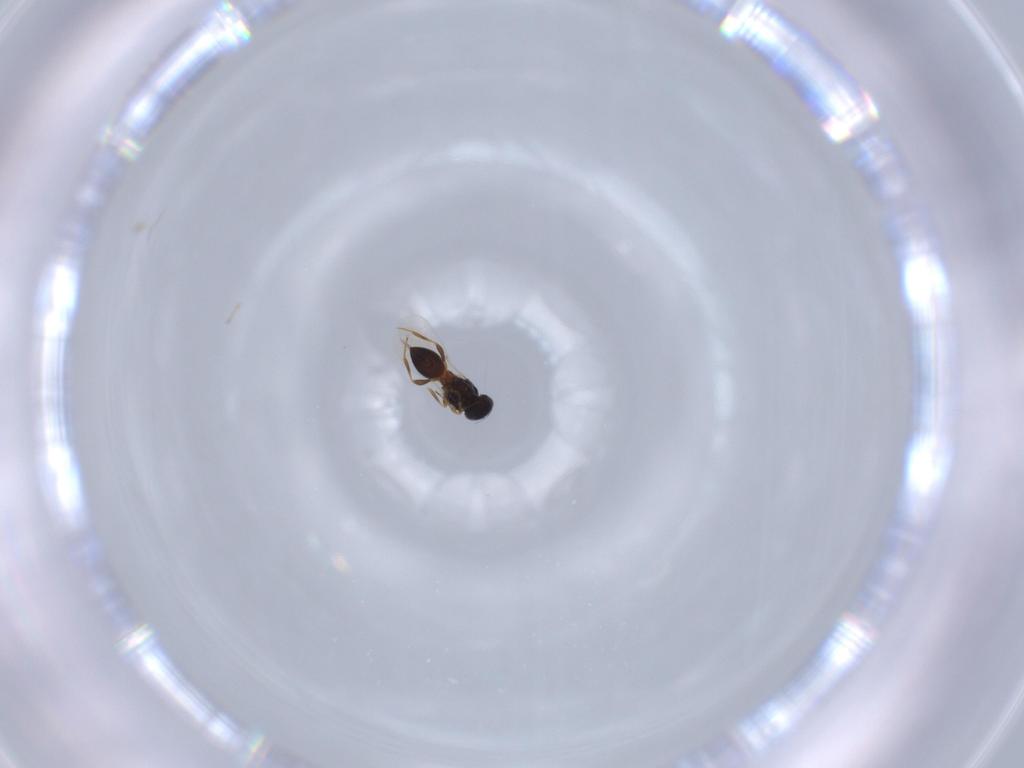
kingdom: Animalia
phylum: Arthropoda
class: Insecta
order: Hymenoptera
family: Platygastridae
